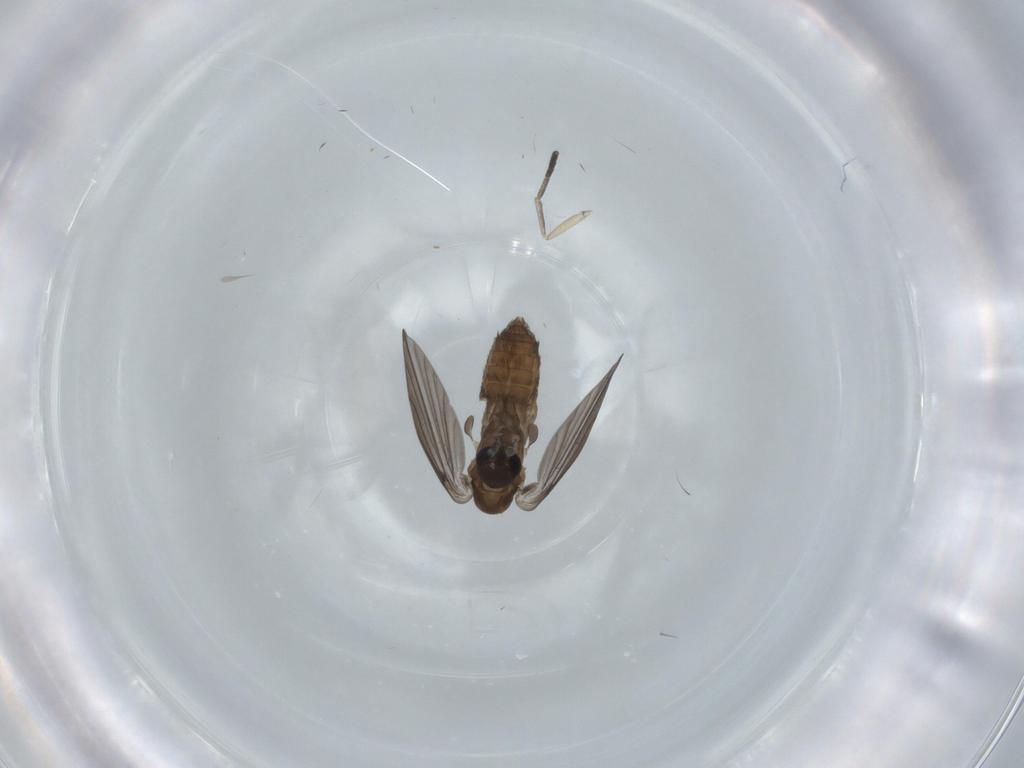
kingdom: Animalia
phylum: Arthropoda
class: Insecta
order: Diptera
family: Psychodidae
